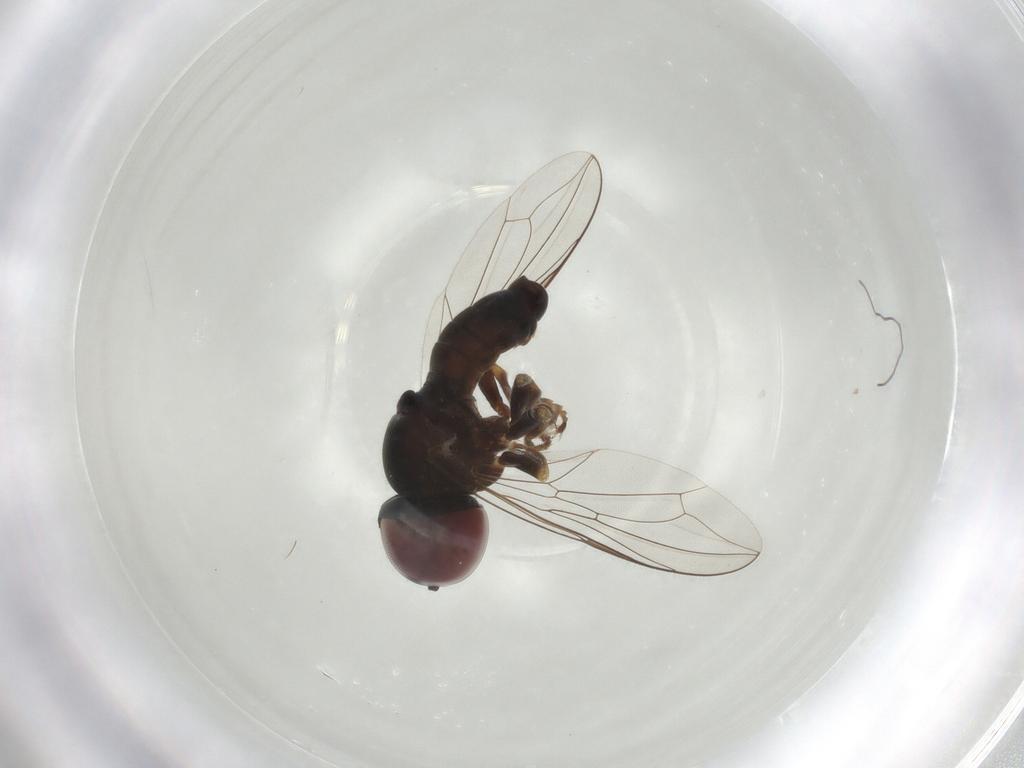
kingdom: Animalia
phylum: Arthropoda
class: Insecta
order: Diptera
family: Pipunculidae
